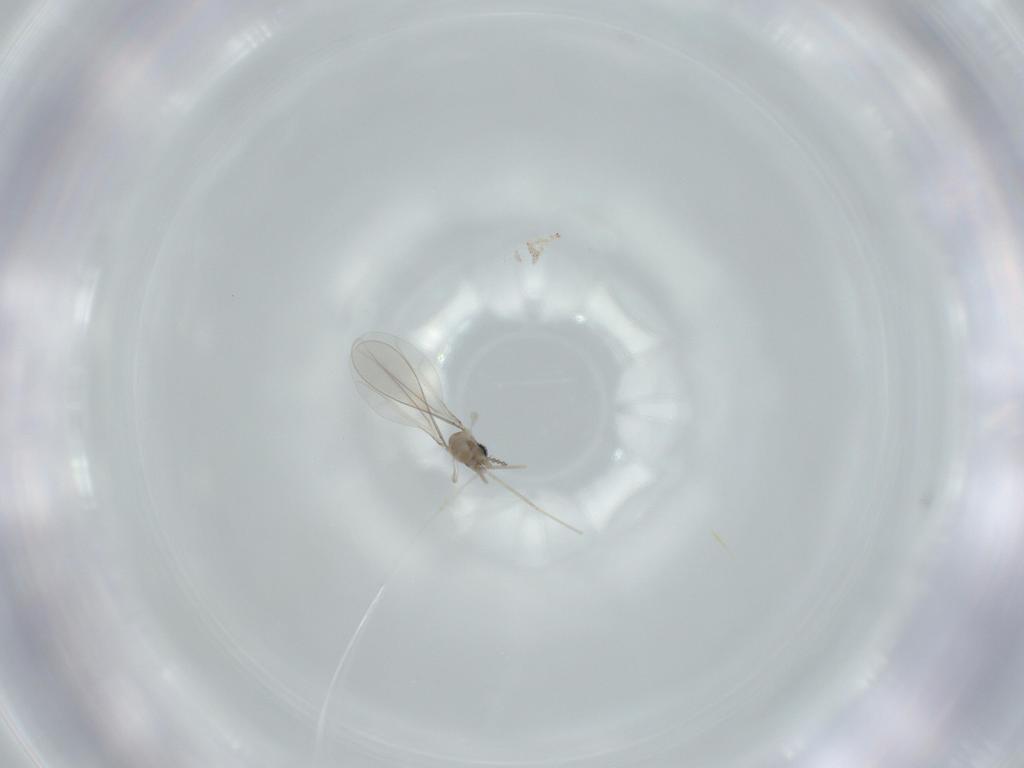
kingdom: Animalia
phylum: Arthropoda
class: Insecta
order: Diptera
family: Cecidomyiidae
